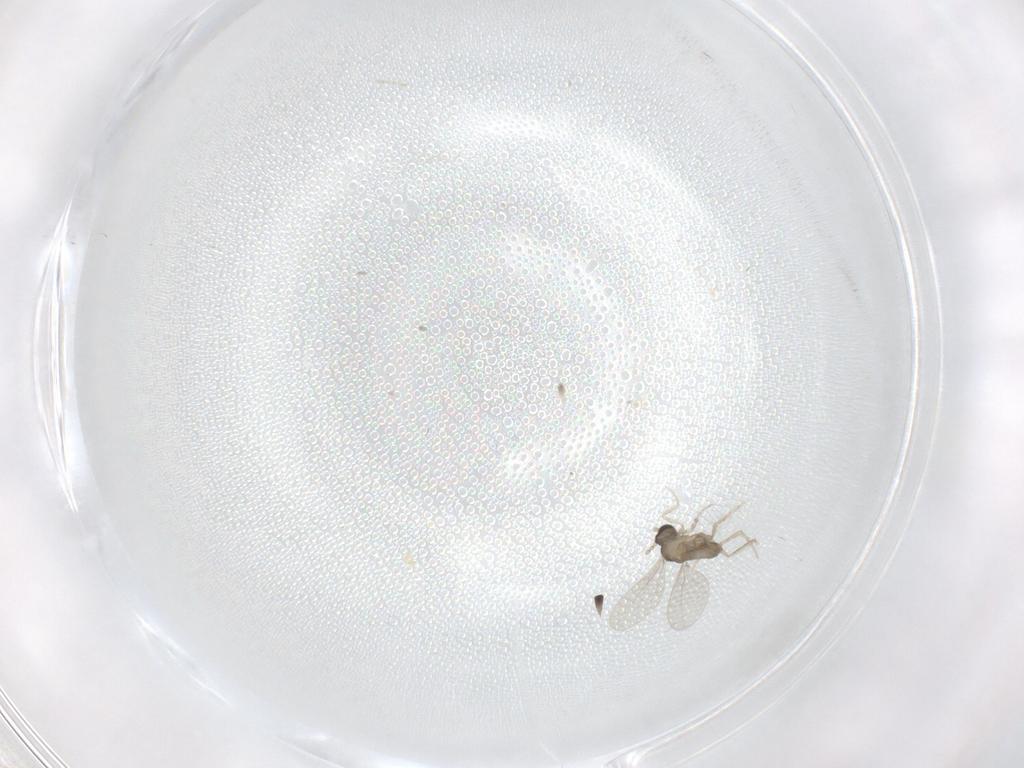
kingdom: Animalia
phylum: Arthropoda
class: Insecta
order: Diptera
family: Cecidomyiidae
